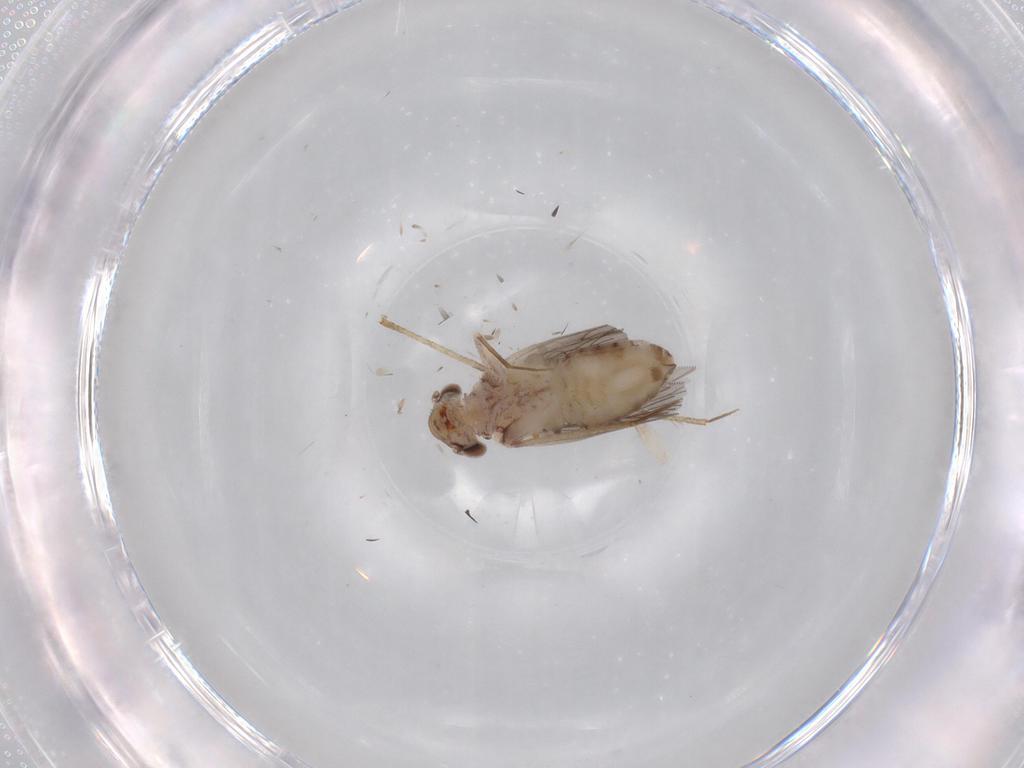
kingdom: Animalia
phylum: Arthropoda
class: Insecta
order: Psocodea
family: Lepidopsocidae
